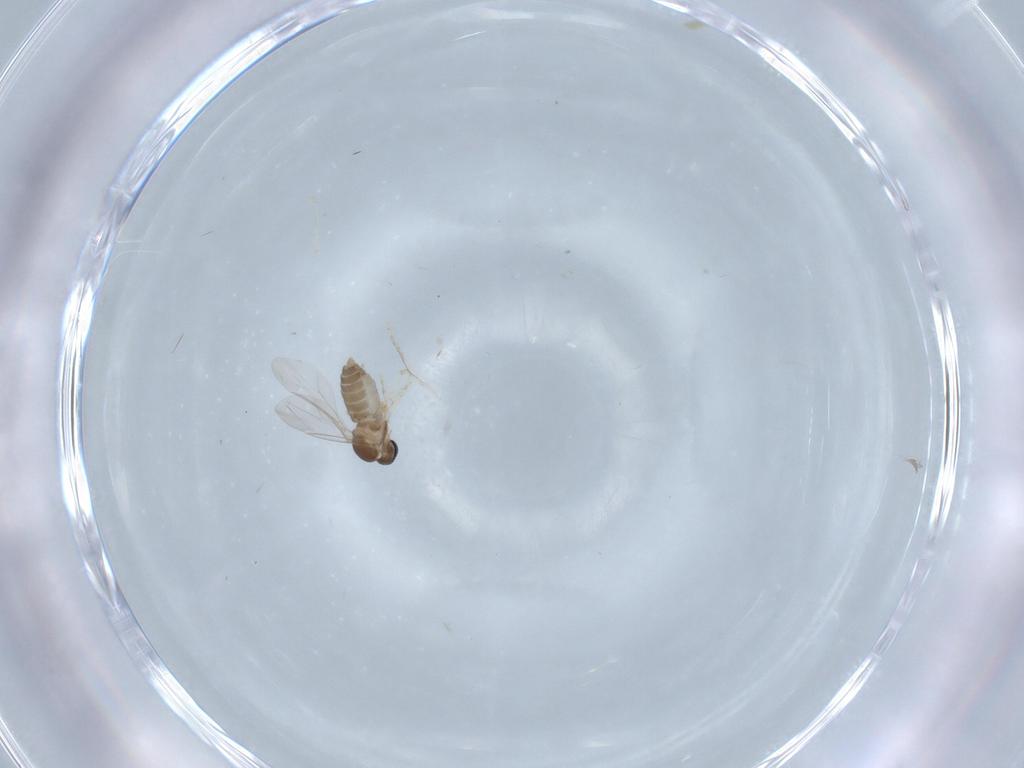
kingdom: Animalia
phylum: Arthropoda
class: Insecta
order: Diptera
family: Cecidomyiidae
